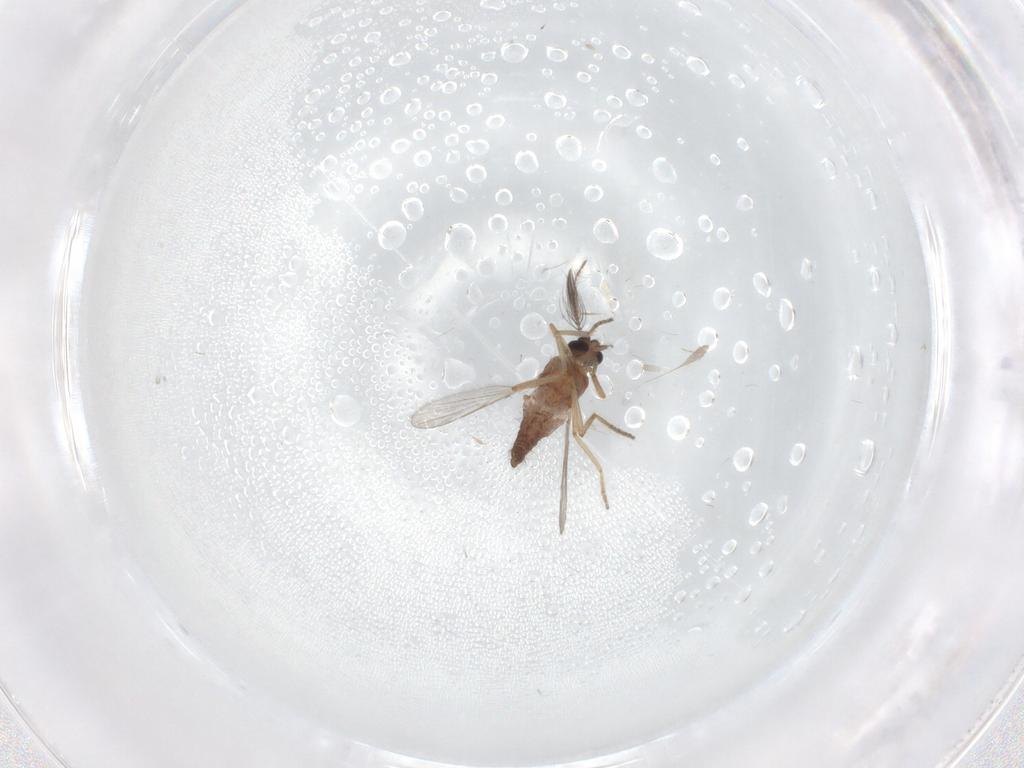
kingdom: Animalia
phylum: Arthropoda
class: Insecta
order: Diptera
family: Ceratopogonidae
